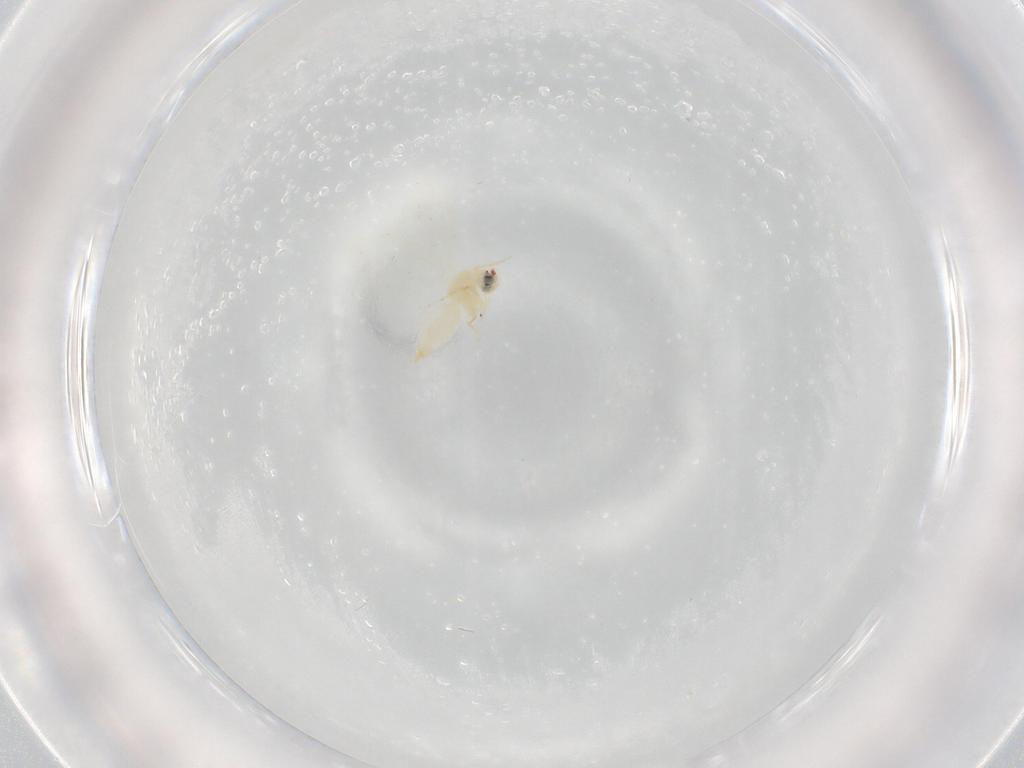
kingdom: Animalia
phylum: Arthropoda
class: Insecta
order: Hemiptera
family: Aleyrodidae
